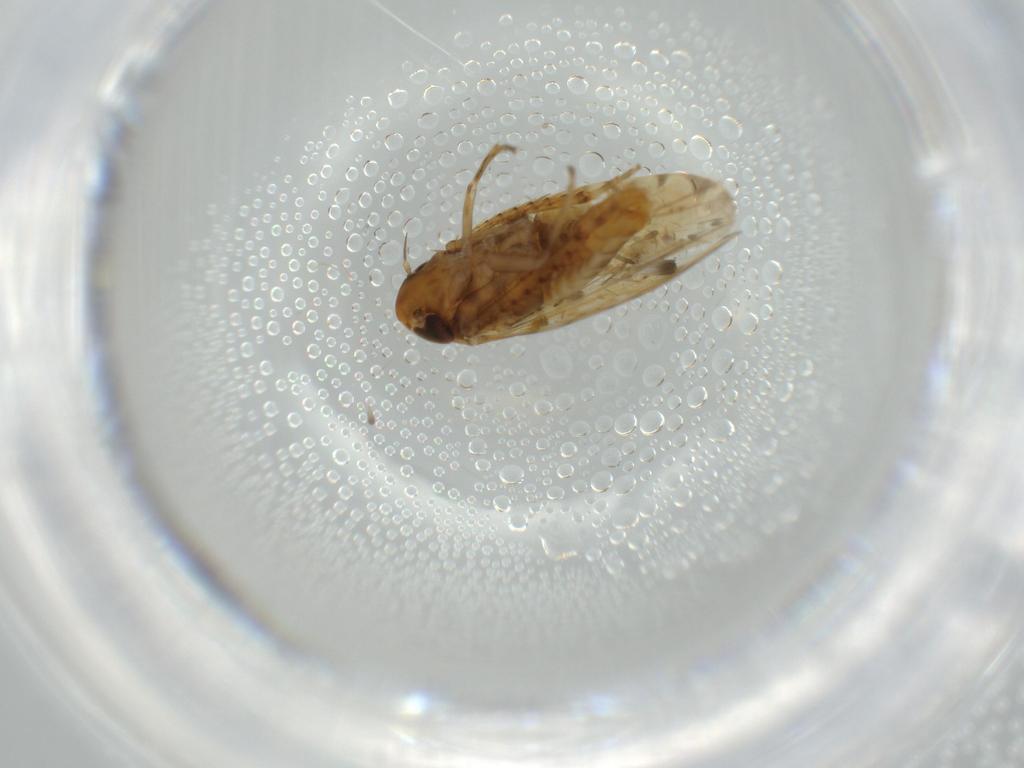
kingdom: Animalia
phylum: Arthropoda
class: Insecta
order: Hemiptera
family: Cicadellidae
